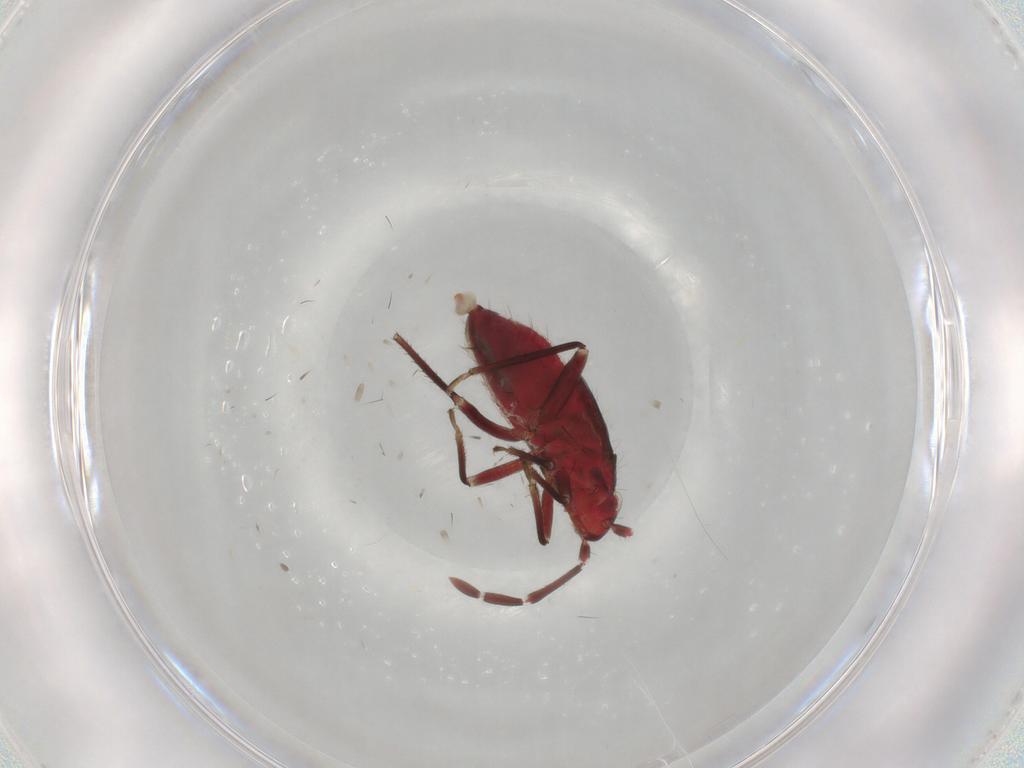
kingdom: Animalia
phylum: Arthropoda
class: Insecta
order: Hemiptera
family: Miridae
